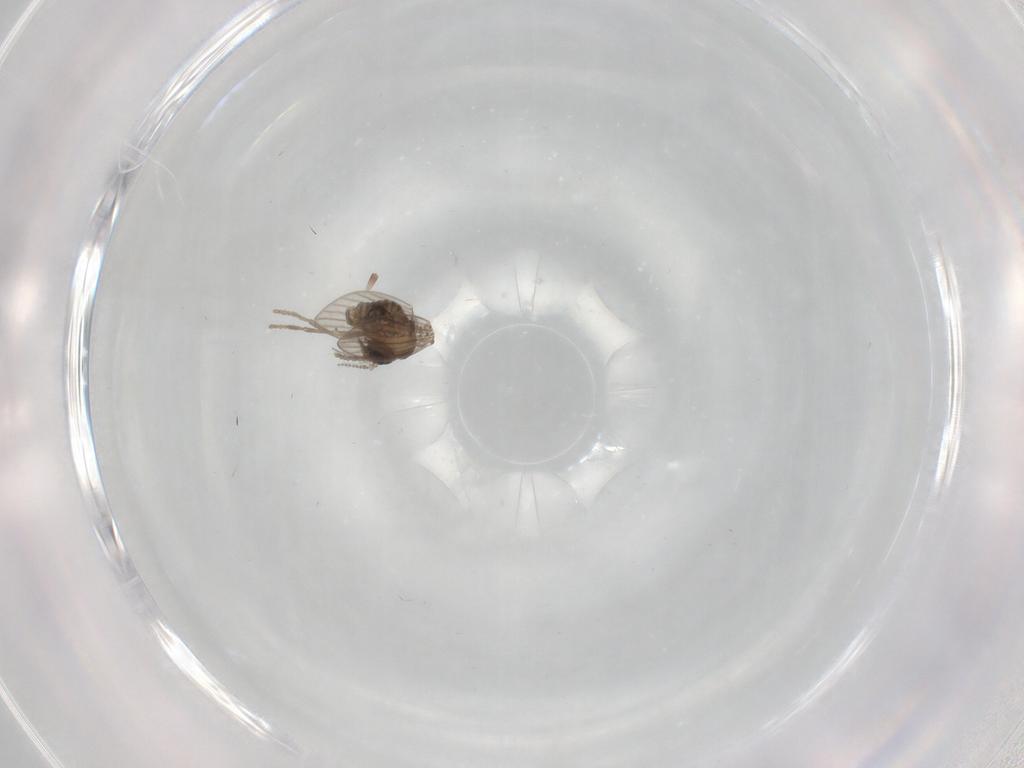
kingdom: Animalia
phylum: Arthropoda
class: Insecta
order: Diptera
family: Psychodidae
